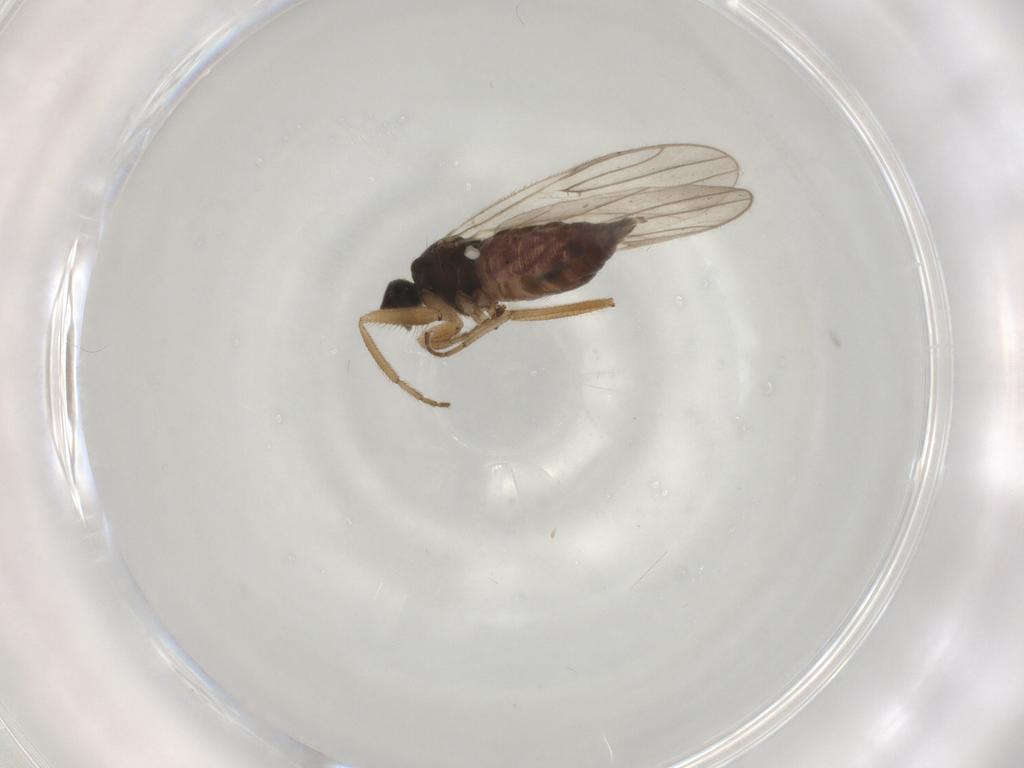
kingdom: Animalia
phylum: Arthropoda
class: Insecta
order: Diptera
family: Hybotidae
